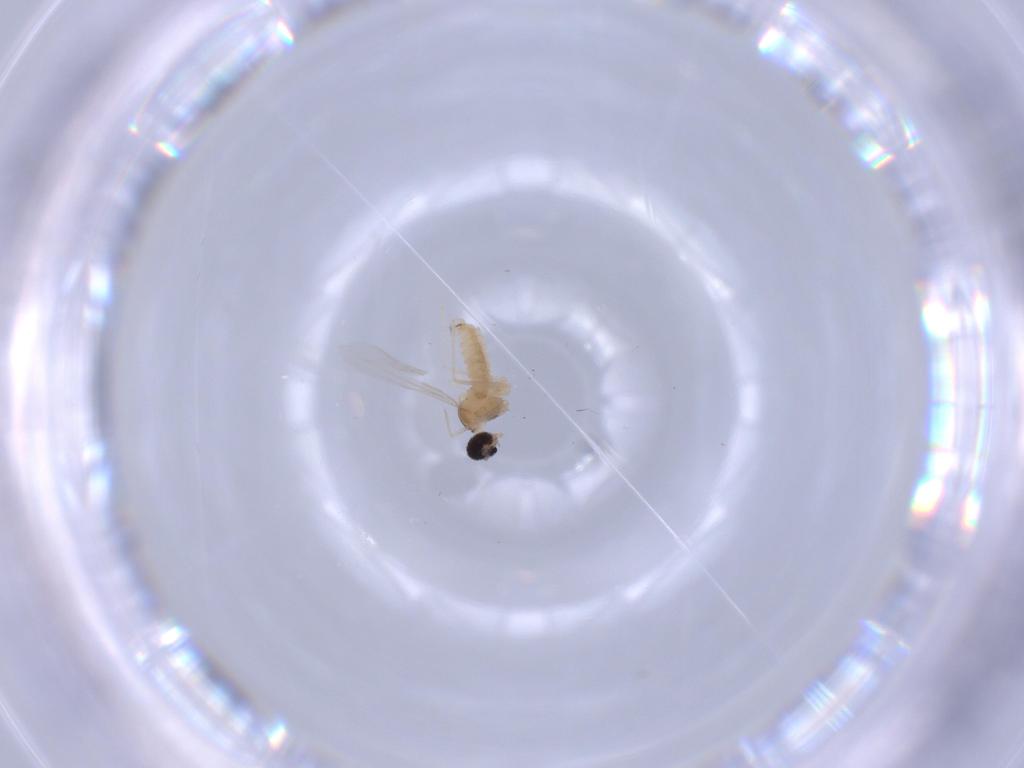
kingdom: Animalia
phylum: Arthropoda
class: Insecta
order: Diptera
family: Cecidomyiidae
